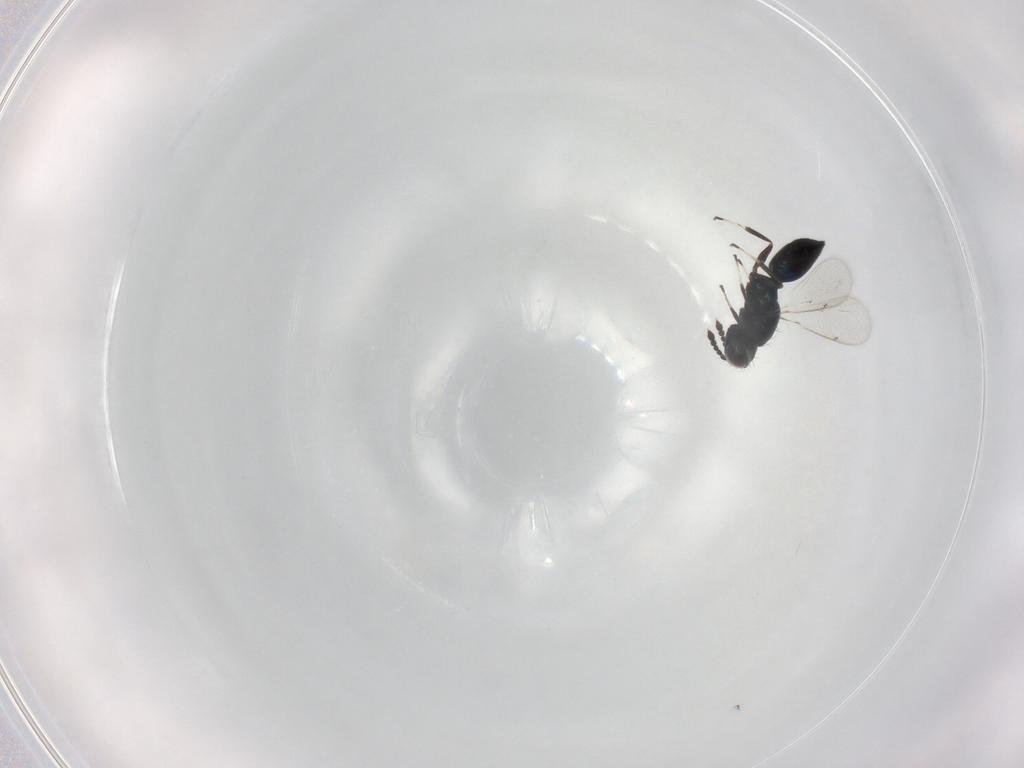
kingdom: Animalia
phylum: Arthropoda
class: Insecta
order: Hymenoptera
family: Eulophidae
